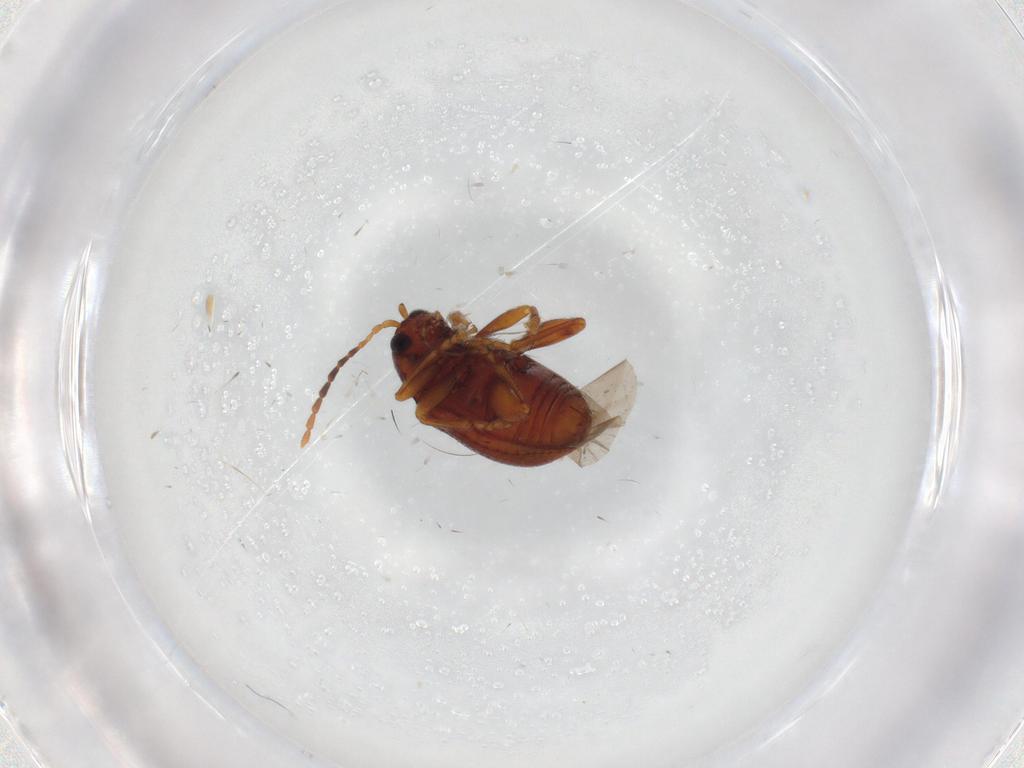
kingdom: Animalia
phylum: Arthropoda
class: Insecta
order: Coleoptera
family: Chrysomelidae
